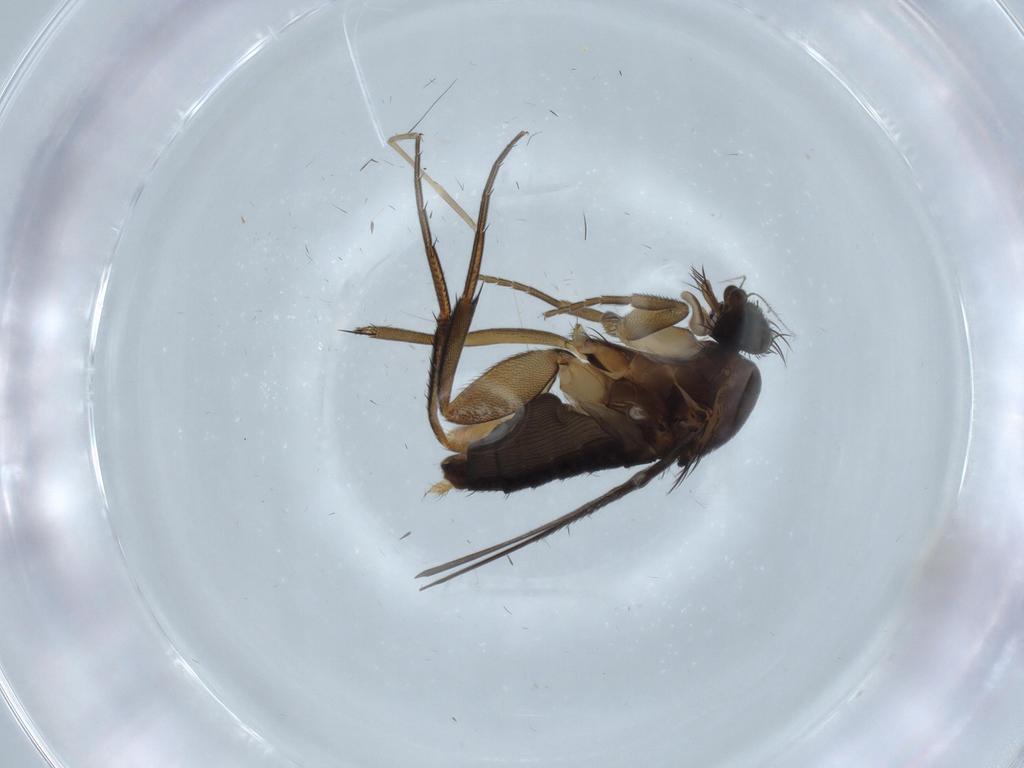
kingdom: Animalia
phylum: Arthropoda
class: Insecta
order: Diptera
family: Phoridae
